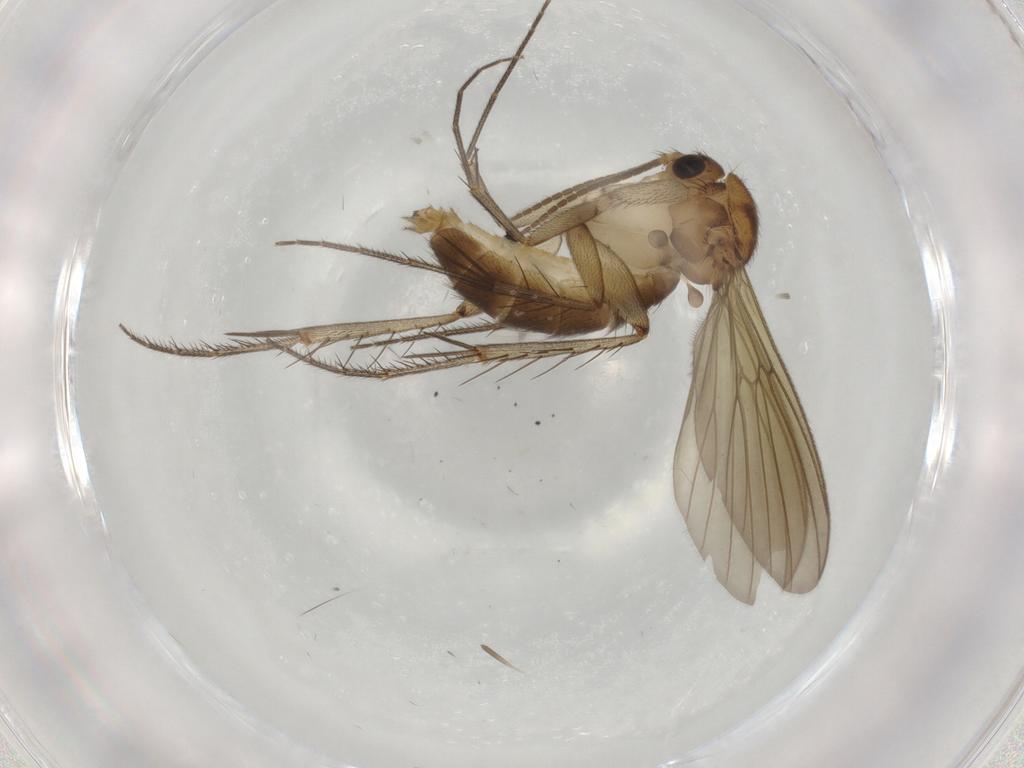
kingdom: Animalia
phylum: Arthropoda
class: Insecta
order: Diptera
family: Mycetophilidae
